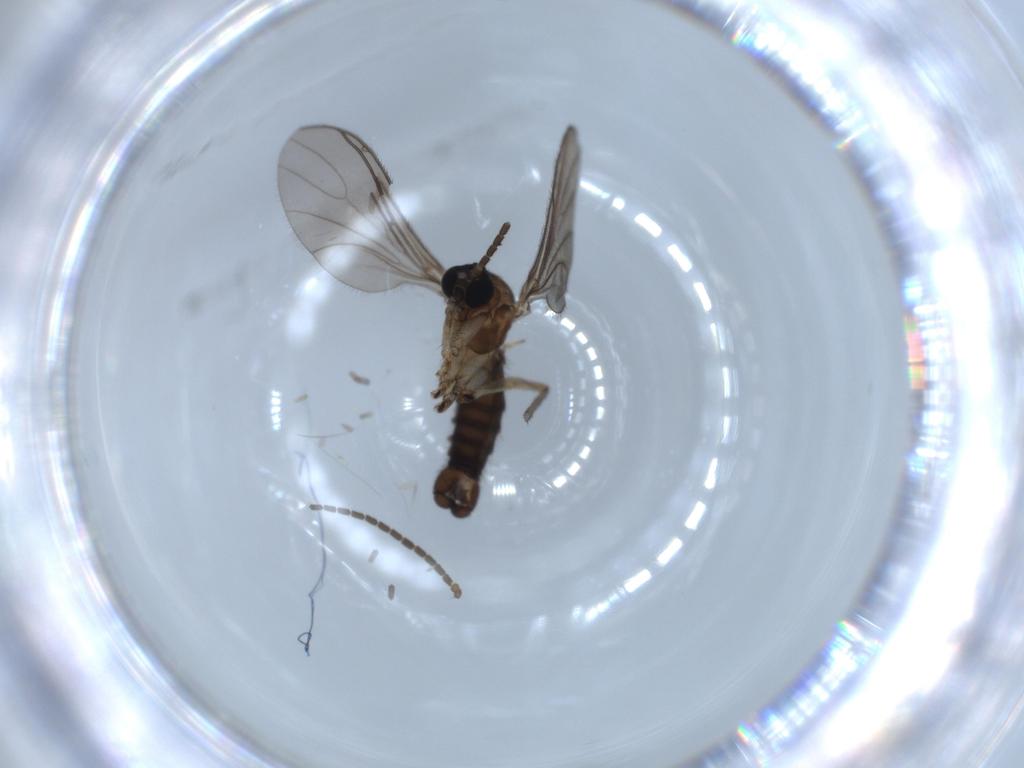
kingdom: Animalia
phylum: Arthropoda
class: Insecta
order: Diptera
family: Sciaridae
